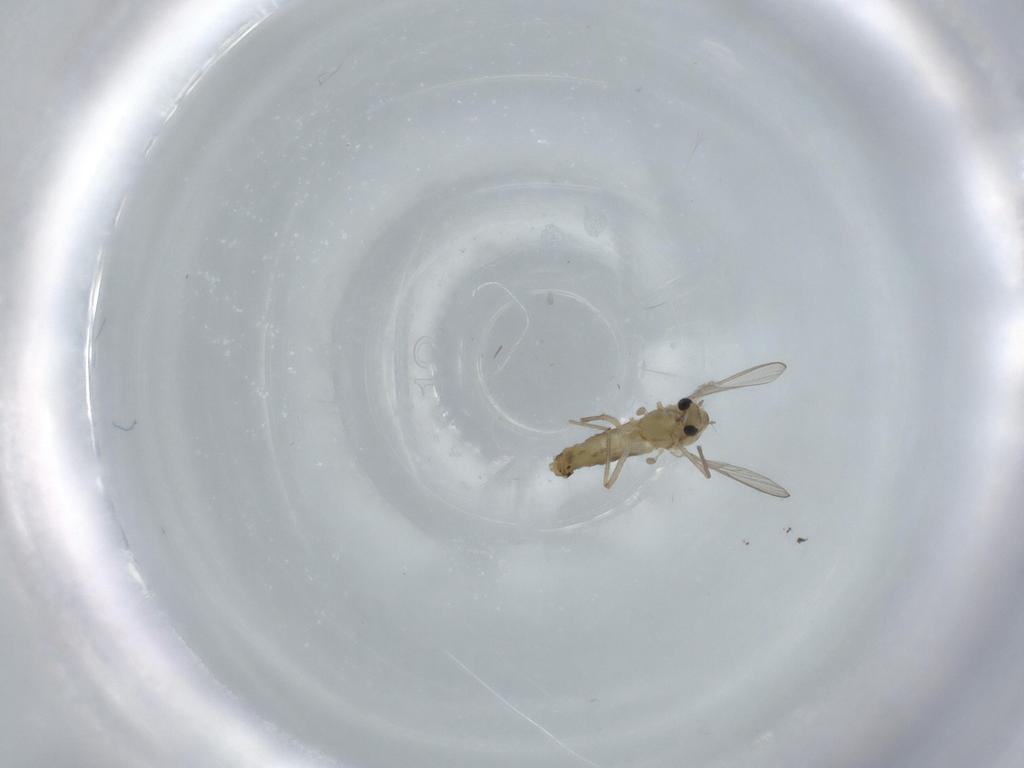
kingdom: Animalia
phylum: Arthropoda
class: Insecta
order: Diptera
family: Chironomidae
